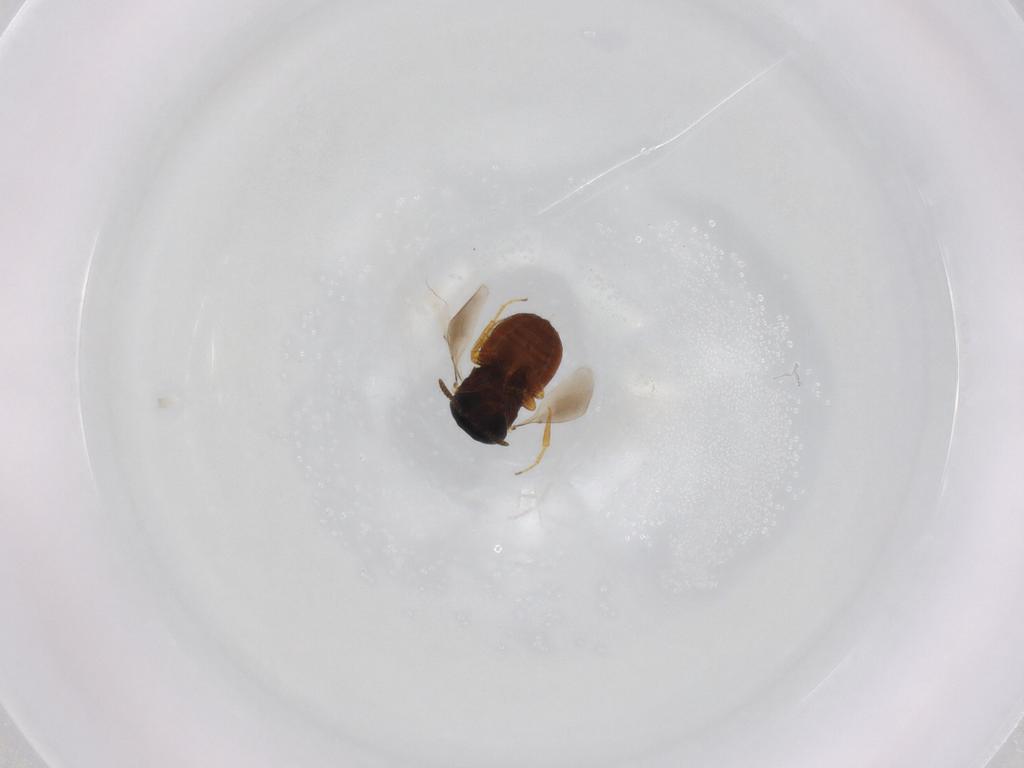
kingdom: Animalia
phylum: Arthropoda
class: Insecta
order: Hymenoptera
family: Scelionidae
